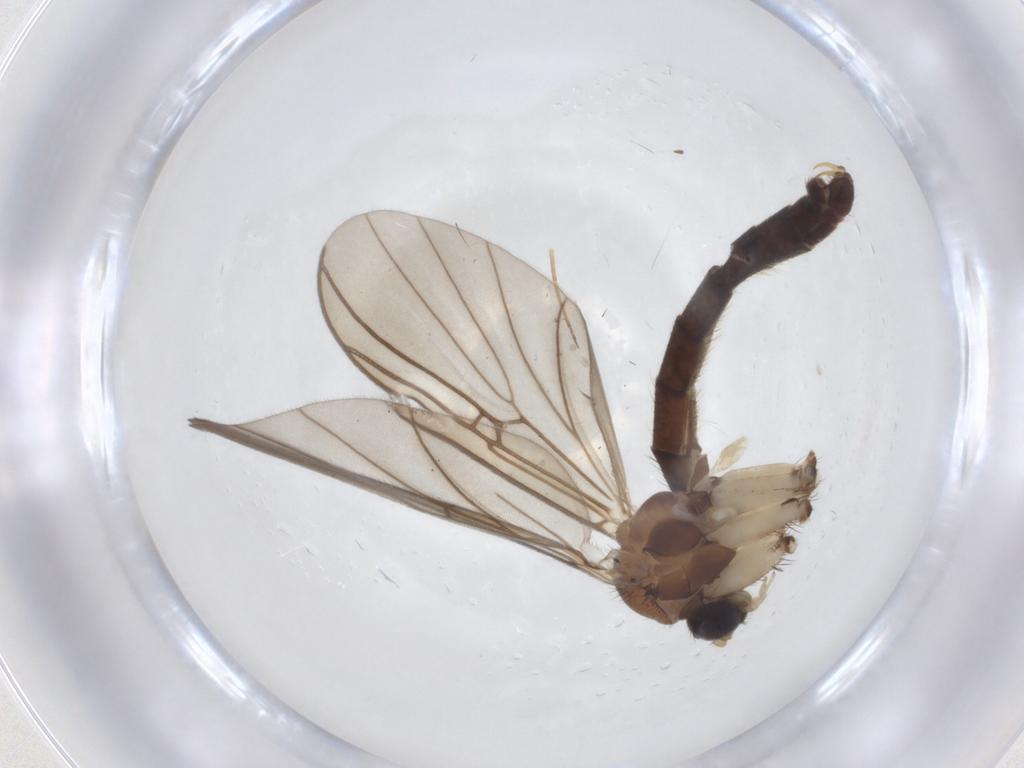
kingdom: Animalia
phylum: Arthropoda
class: Insecta
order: Diptera
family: Mycetophilidae
